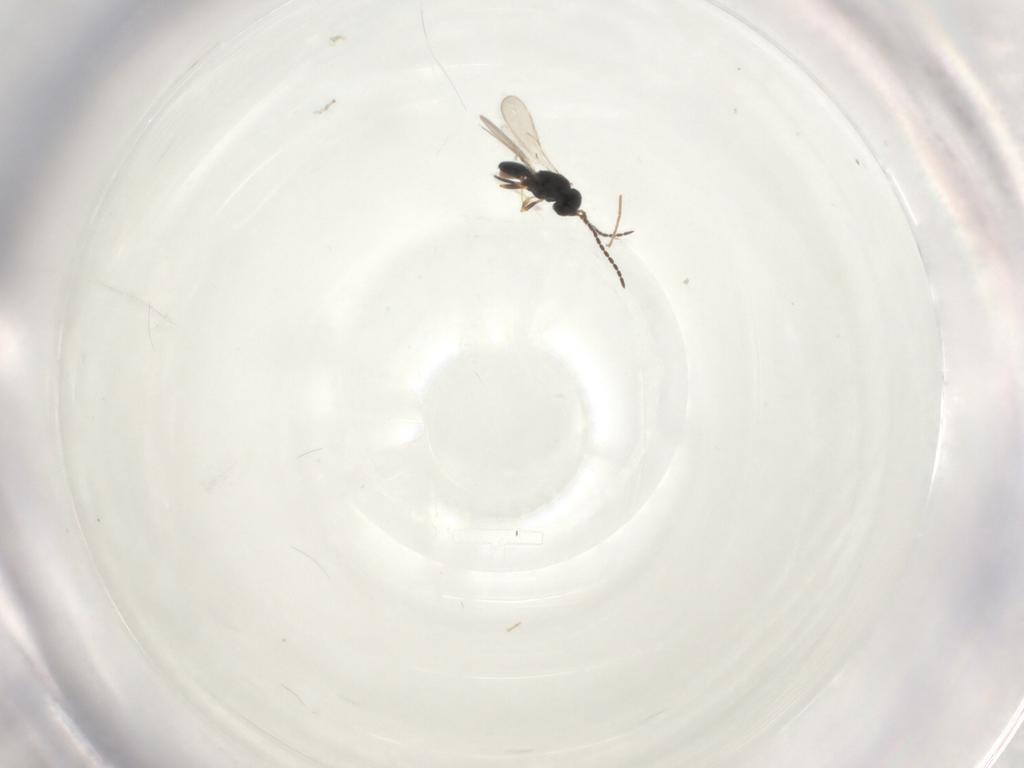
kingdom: Animalia
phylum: Arthropoda
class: Insecta
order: Hymenoptera
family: Scelionidae
